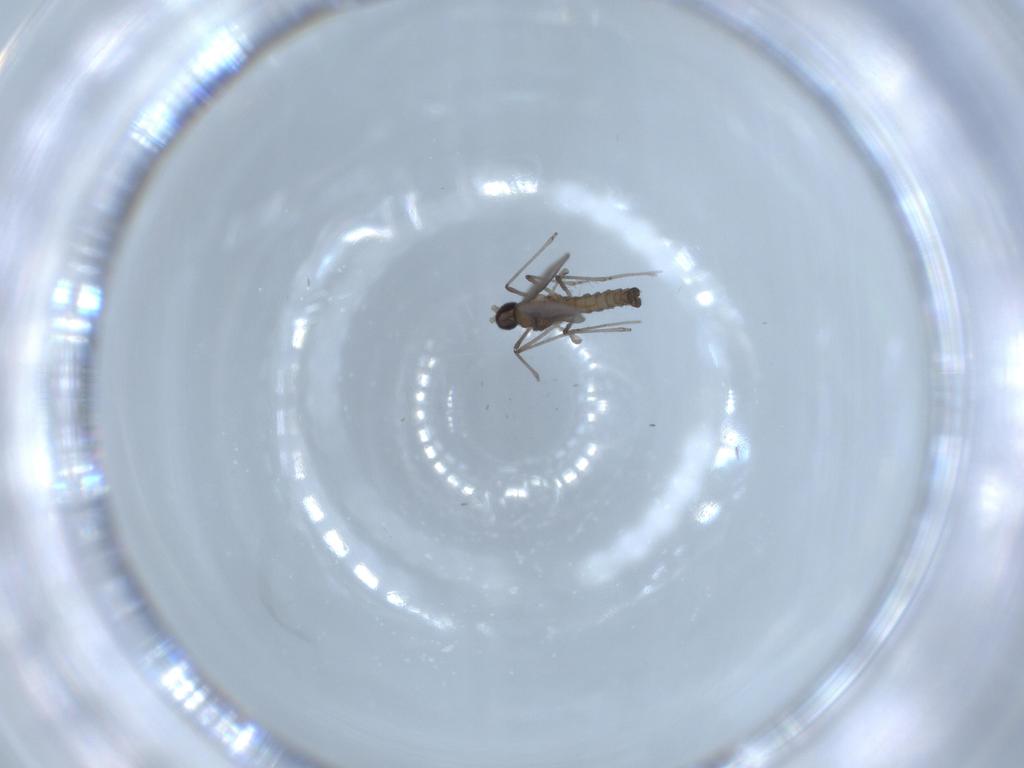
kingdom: Animalia
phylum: Arthropoda
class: Insecta
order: Diptera
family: Cecidomyiidae
